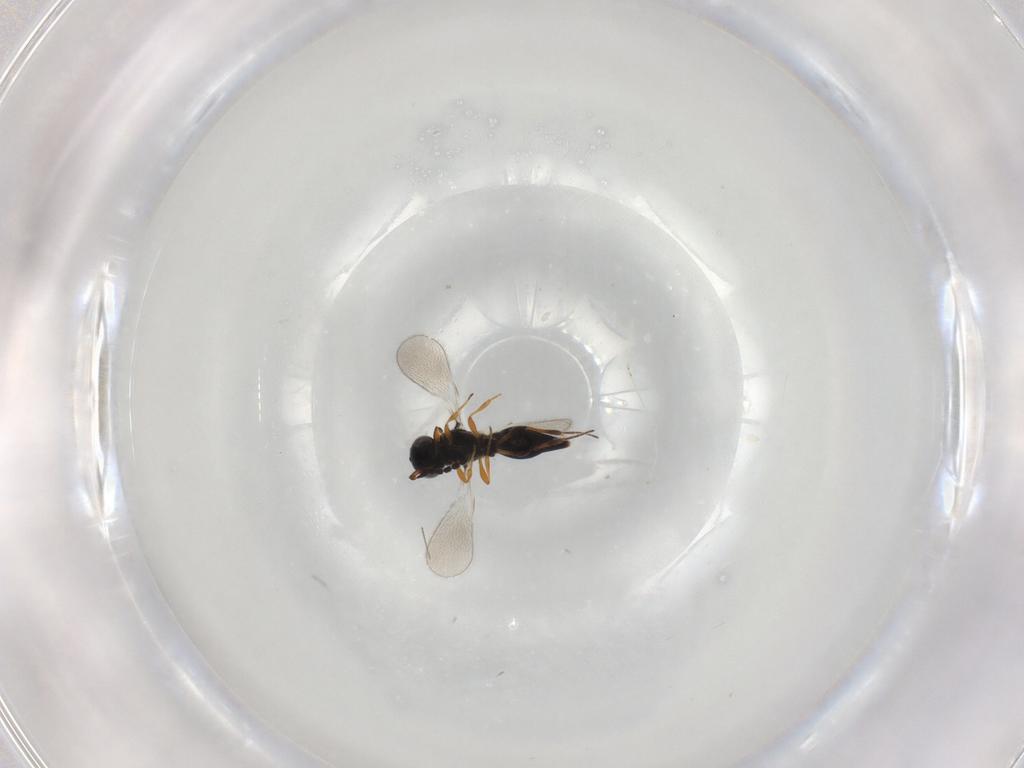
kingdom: Animalia
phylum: Arthropoda
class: Insecta
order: Hymenoptera
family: Platygastridae
